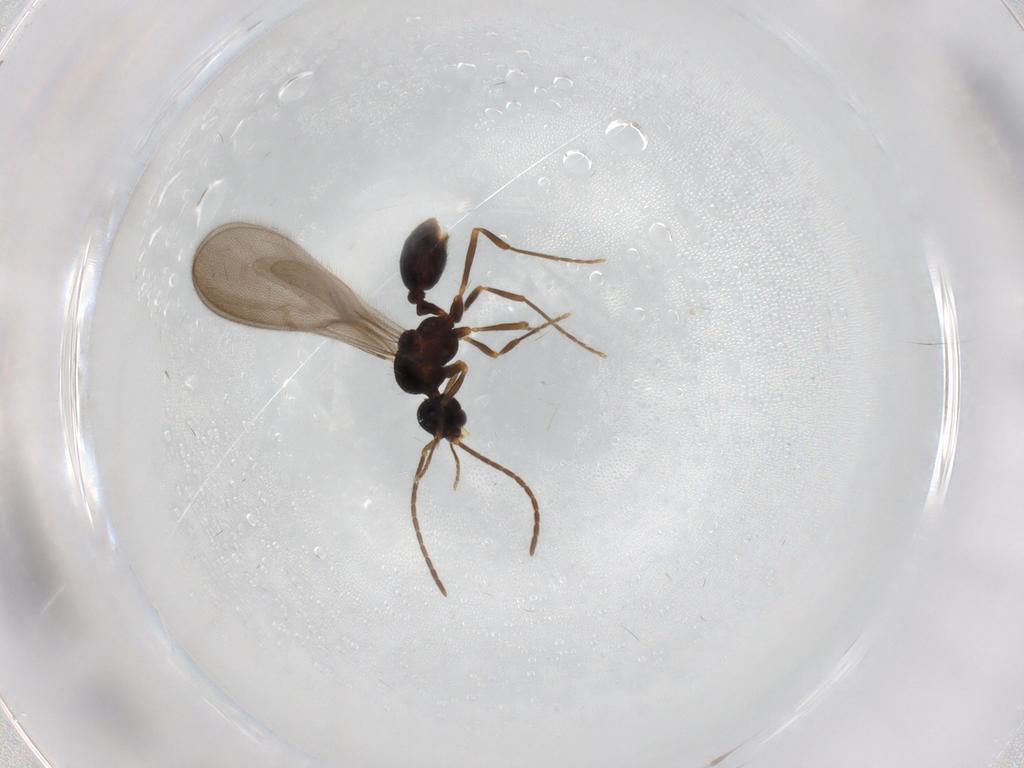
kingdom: Animalia
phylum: Arthropoda
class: Insecta
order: Hymenoptera
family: Formicidae
